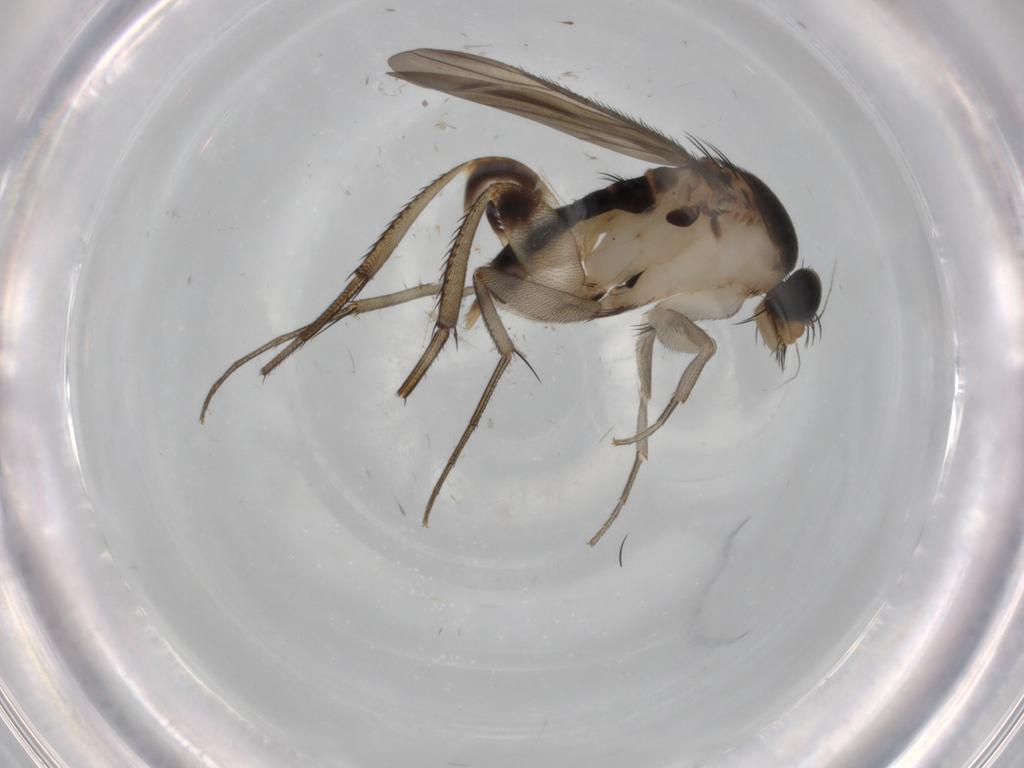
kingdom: Animalia
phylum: Arthropoda
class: Insecta
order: Diptera
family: Phoridae
